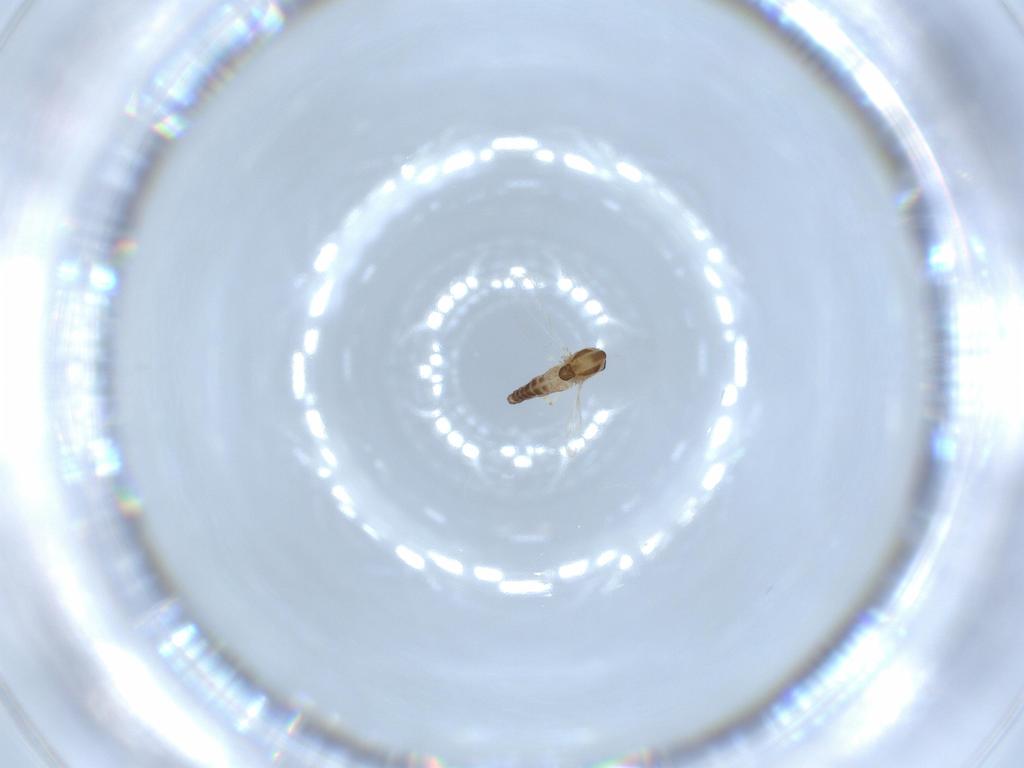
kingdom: Animalia
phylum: Arthropoda
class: Insecta
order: Diptera
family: Chironomidae
